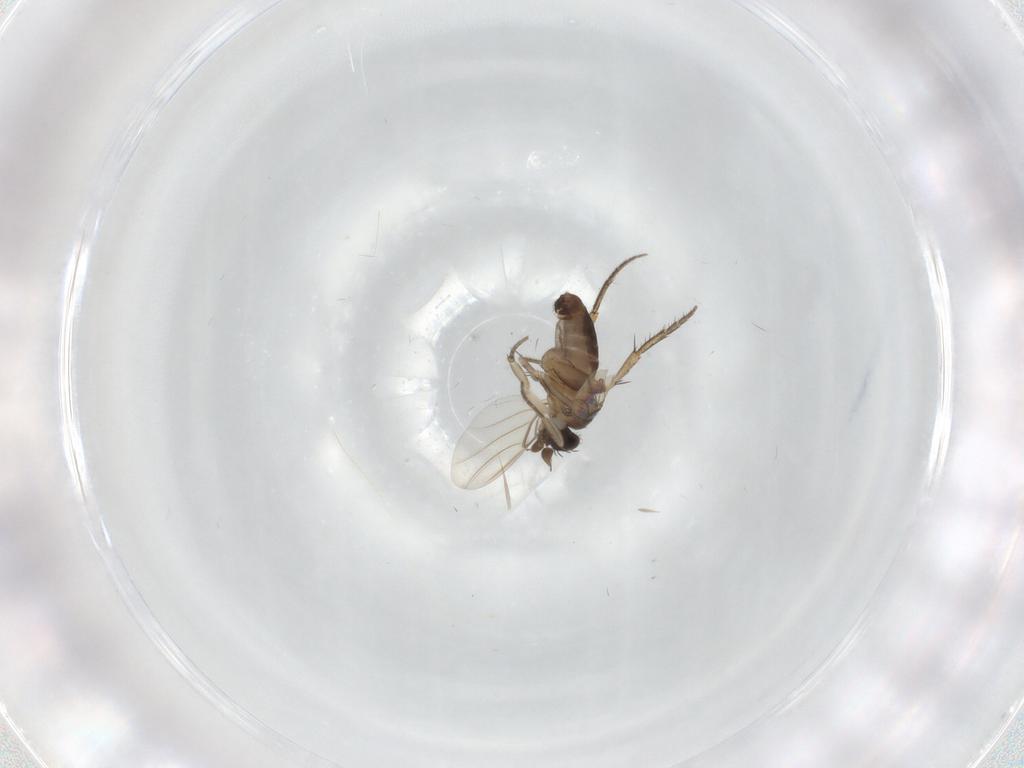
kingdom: Animalia
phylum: Arthropoda
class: Insecta
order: Diptera
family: Phoridae
